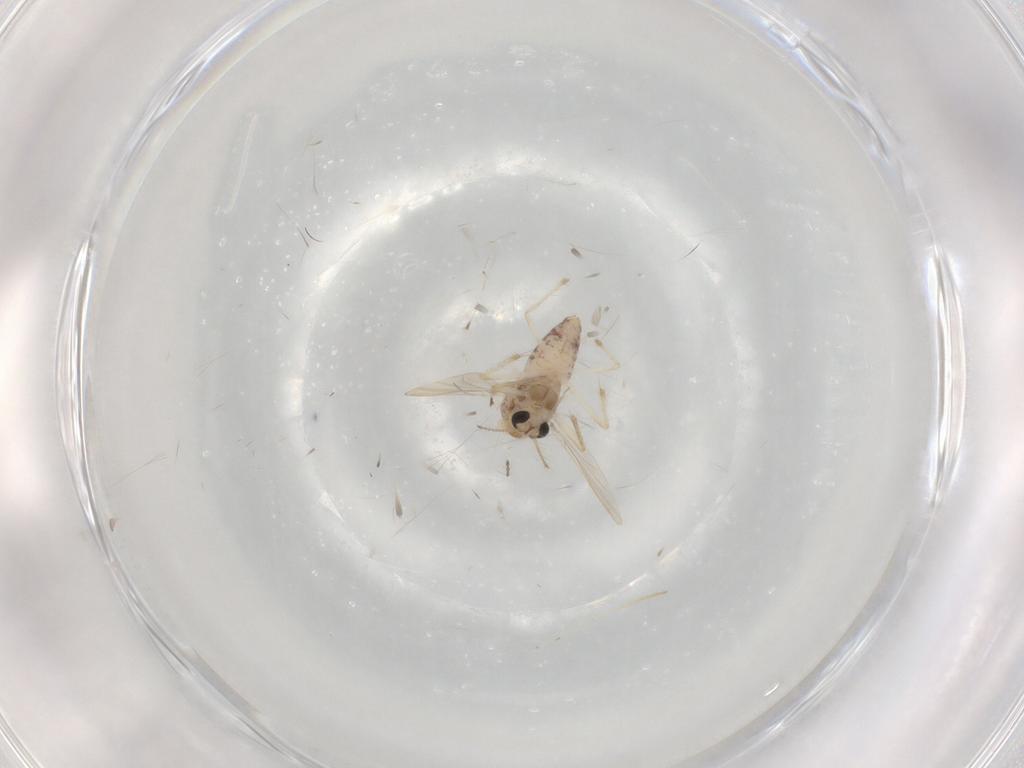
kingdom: Animalia
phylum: Arthropoda
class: Insecta
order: Diptera
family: Chironomidae
